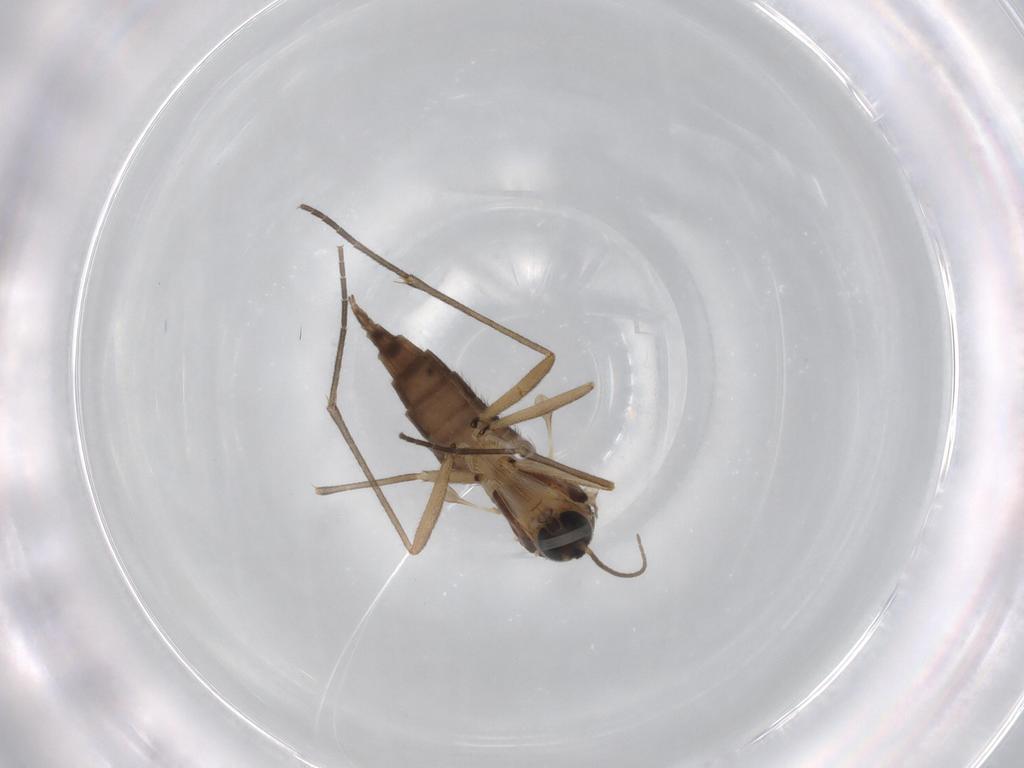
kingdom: Animalia
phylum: Arthropoda
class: Insecta
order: Diptera
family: Sciaridae
